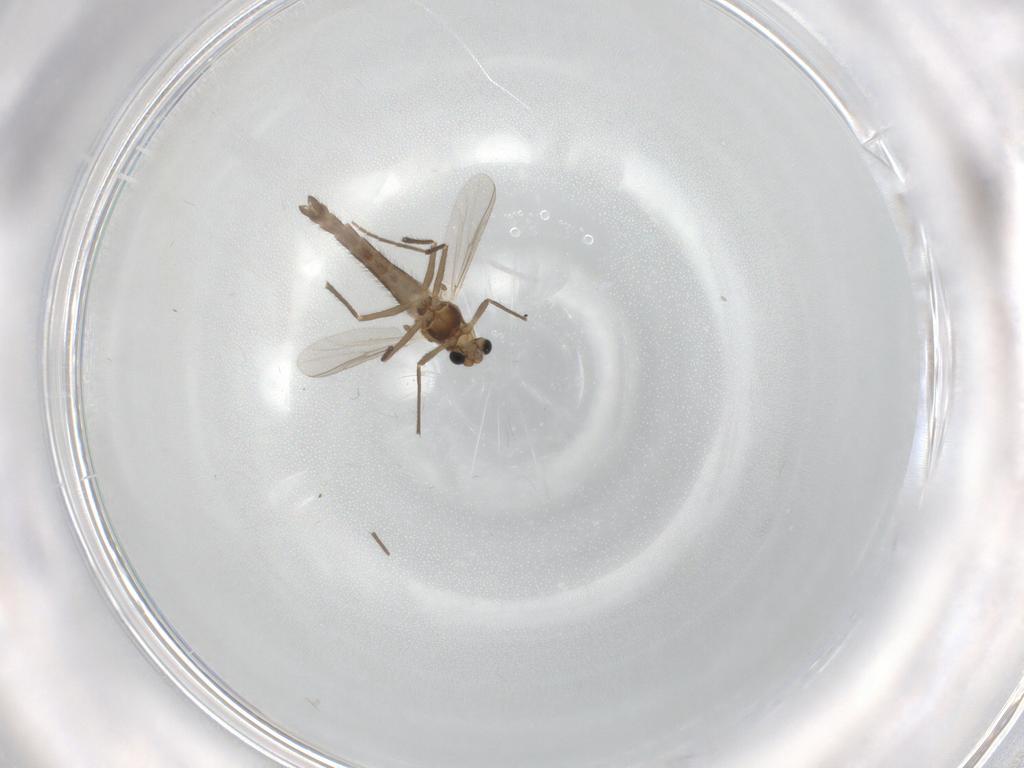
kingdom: Animalia
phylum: Arthropoda
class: Insecta
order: Diptera
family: Chironomidae
